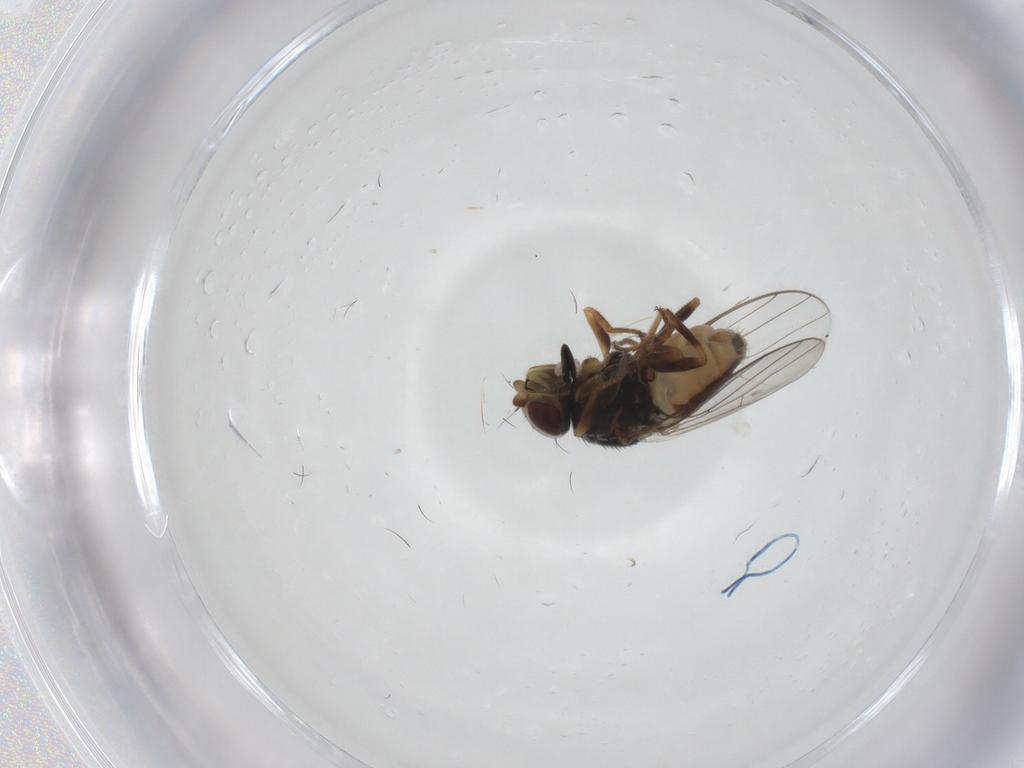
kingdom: Animalia
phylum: Arthropoda
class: Insecta
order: Diptera
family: Chloropidae
